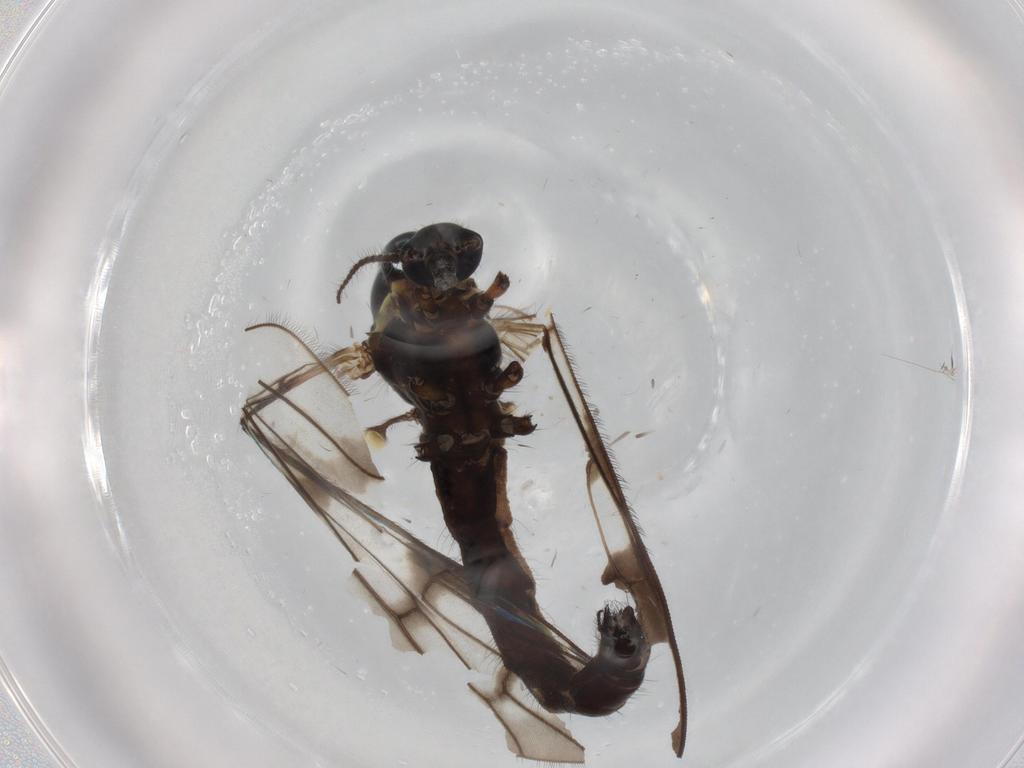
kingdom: Animalia
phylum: Arthropoda
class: Insecta
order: Diptera
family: Limoniidae
